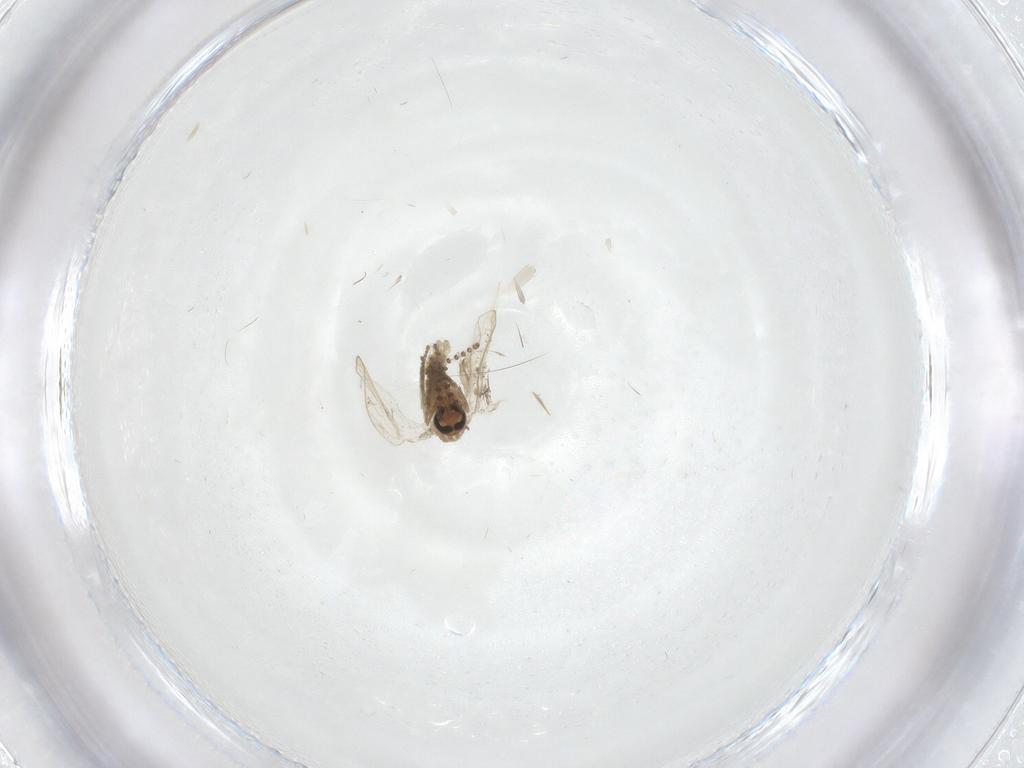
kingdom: Animalia
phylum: Arthropoda
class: Insecta
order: Diptera
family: Psychodidae
